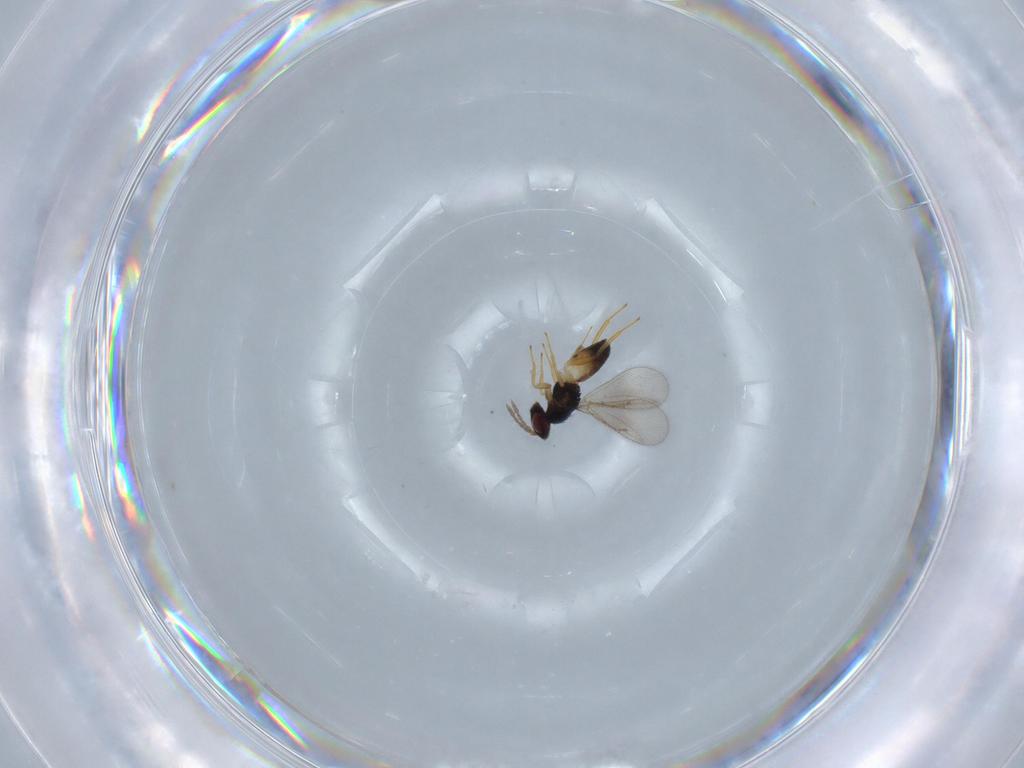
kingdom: Animalia
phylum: Arthropoda
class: Insecta
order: Hymenoptera
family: Eulophidae
